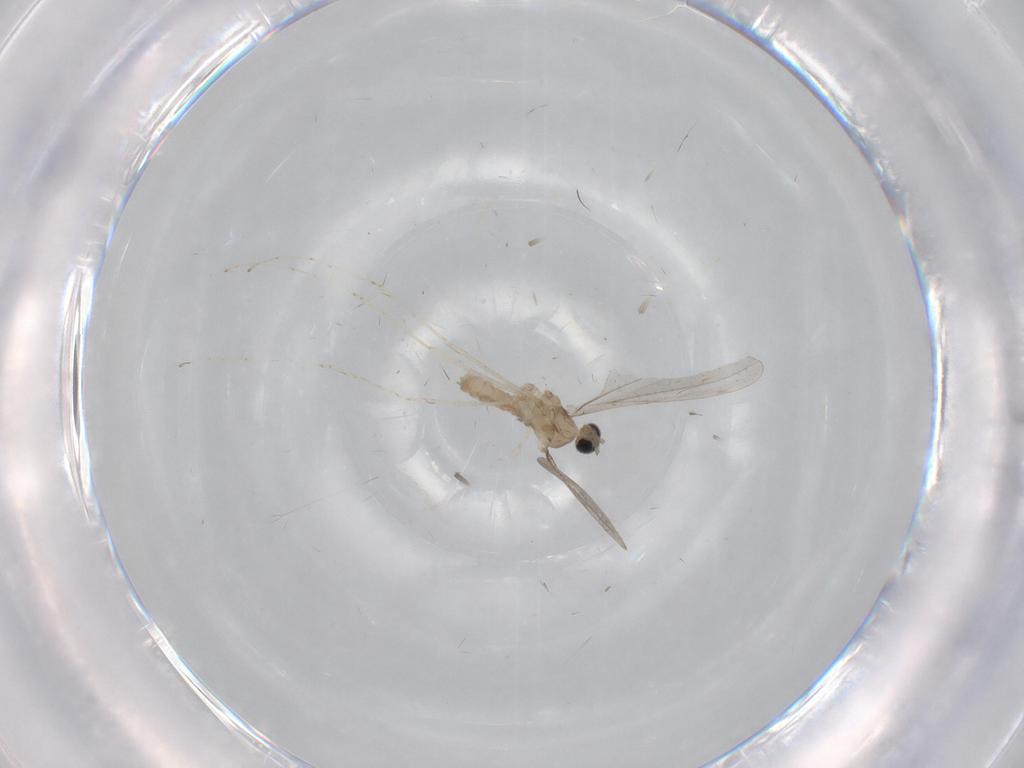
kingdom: Animalia
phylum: Arthropoda
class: Insecta
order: Diptera
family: Cecidomyiidae
